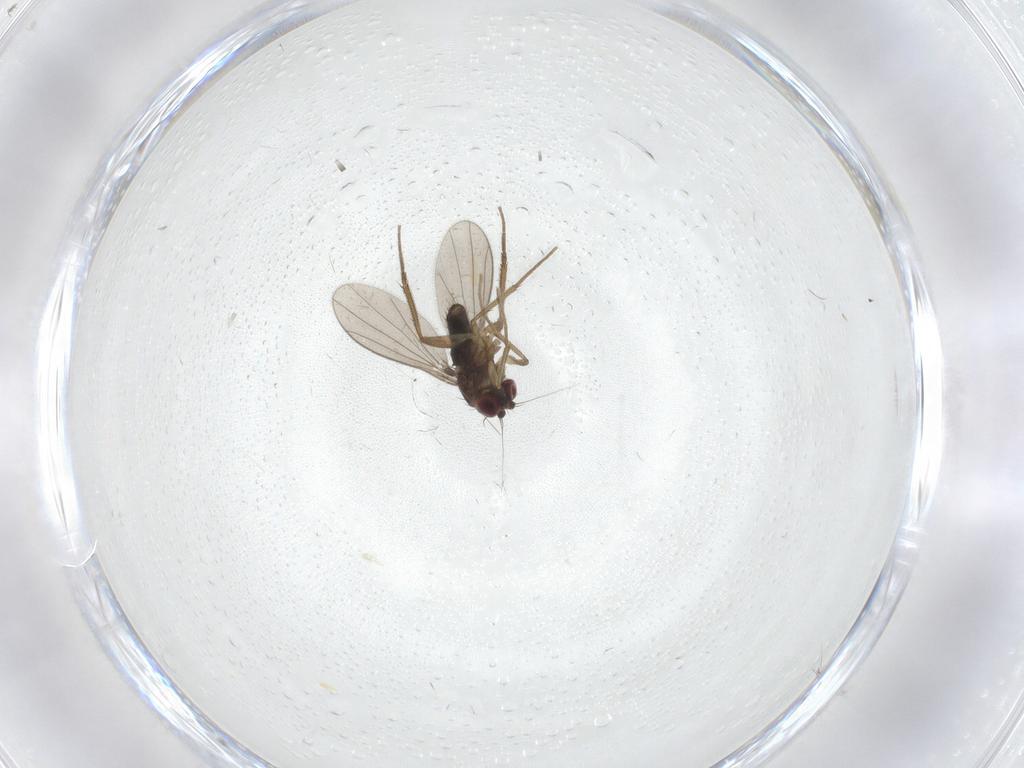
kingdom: Animalia
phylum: Arthropoda
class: Insecta
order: Diptera
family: Dolichopodidae
